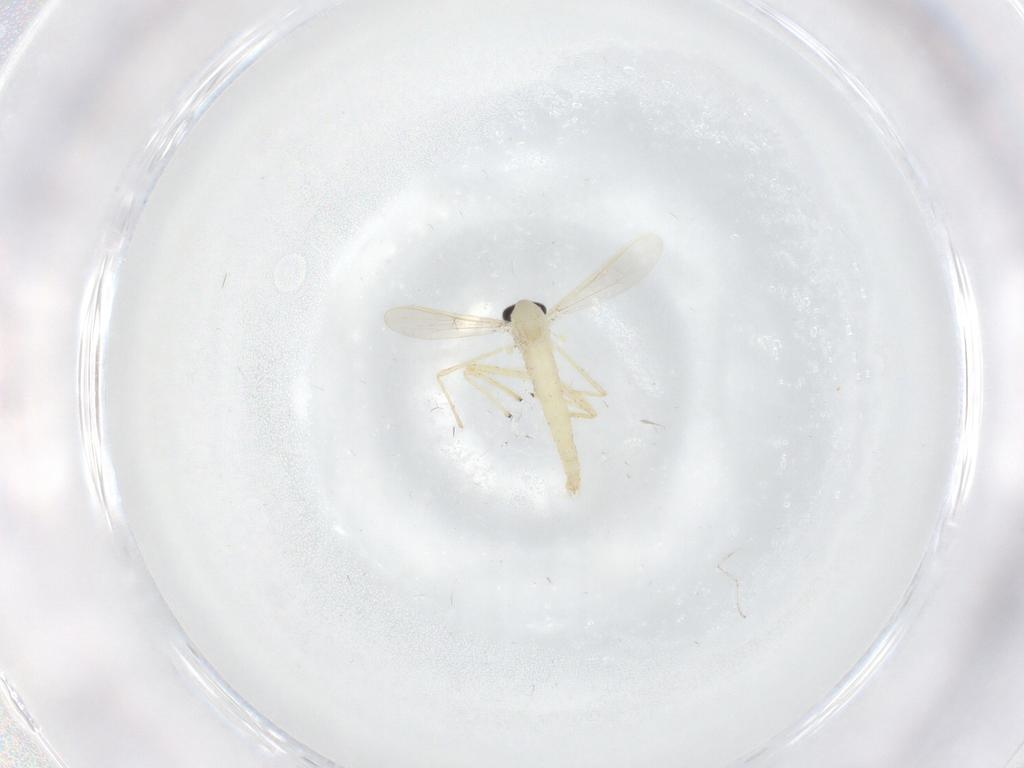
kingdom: Animalia
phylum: Arthropoda
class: Insecta
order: Diptera
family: Cecidomyiidae
